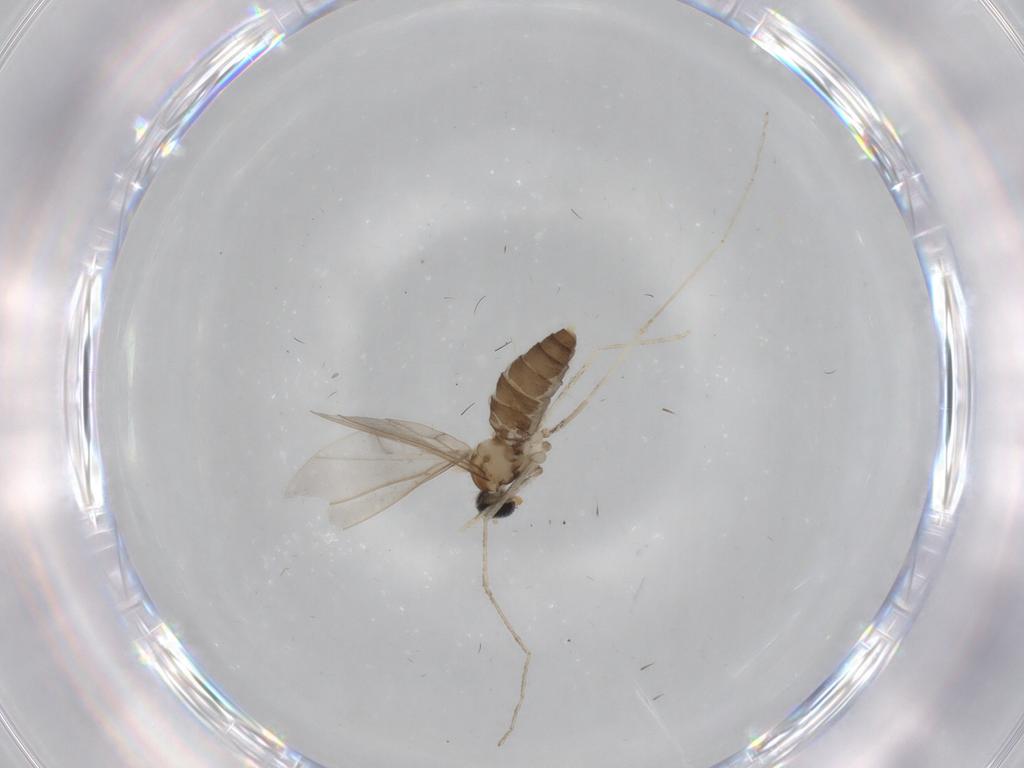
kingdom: Animalia
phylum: Arthropoda
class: Insecta
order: Diptera
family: Cecidomyiidae
